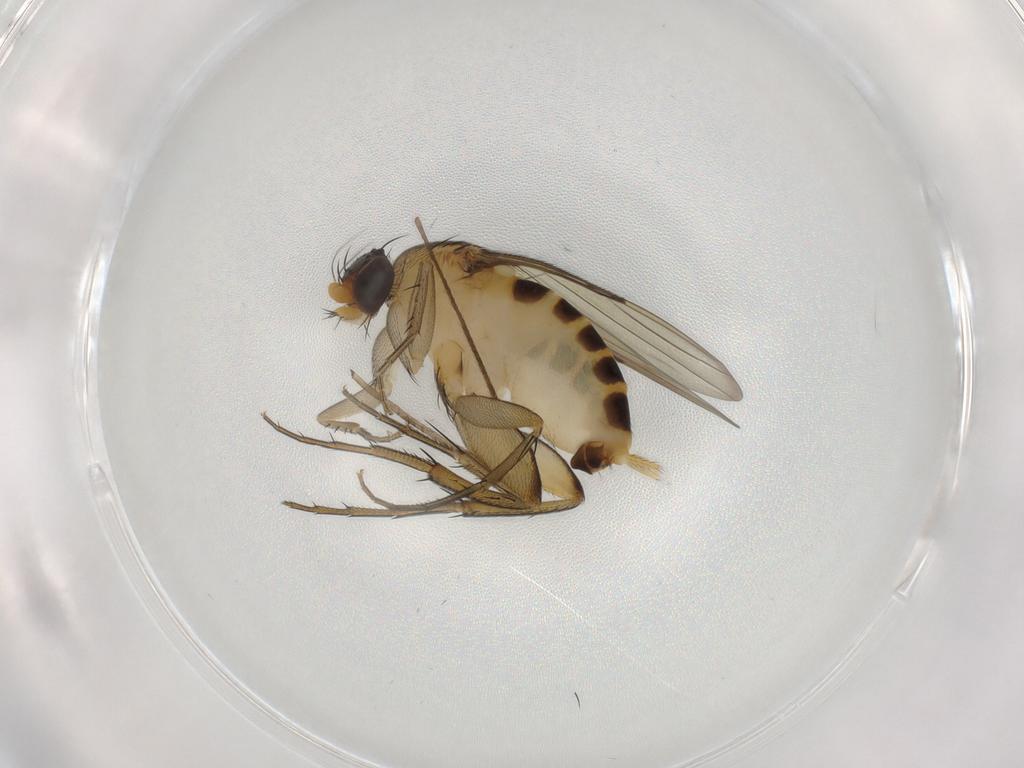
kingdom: Animalia
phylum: Arthropoda
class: Insecta
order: Diptera
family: Phoridae
